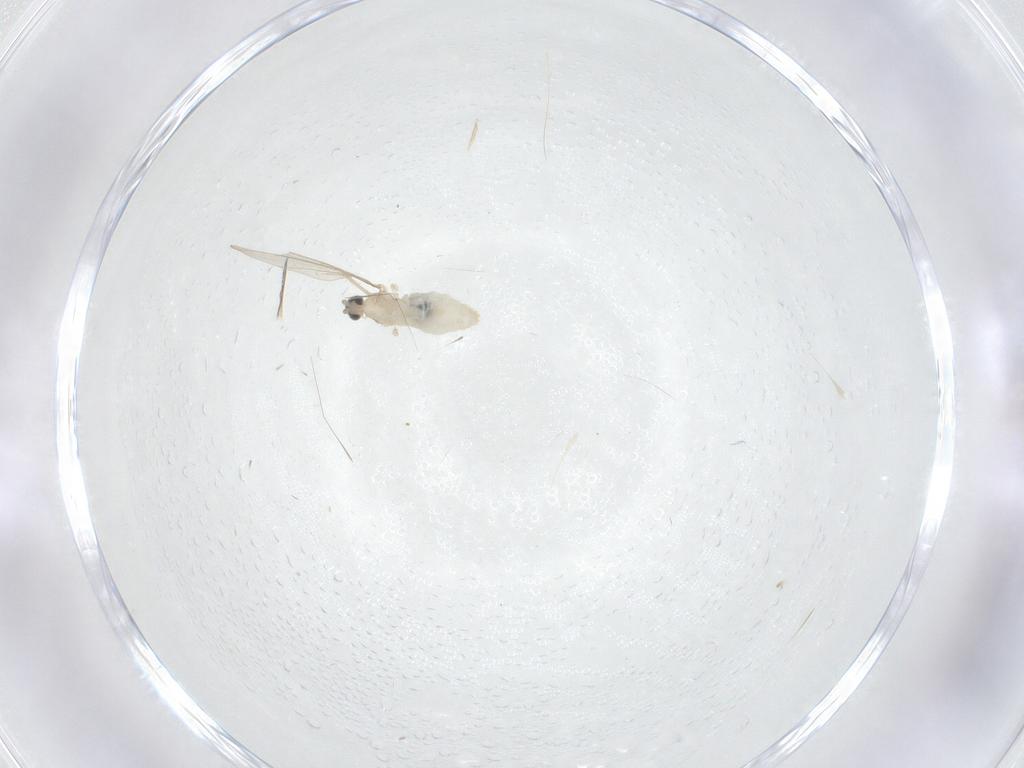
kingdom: Animalia
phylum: Arthropoda
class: Insecta
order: Diptera
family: Cecidomyiidae
